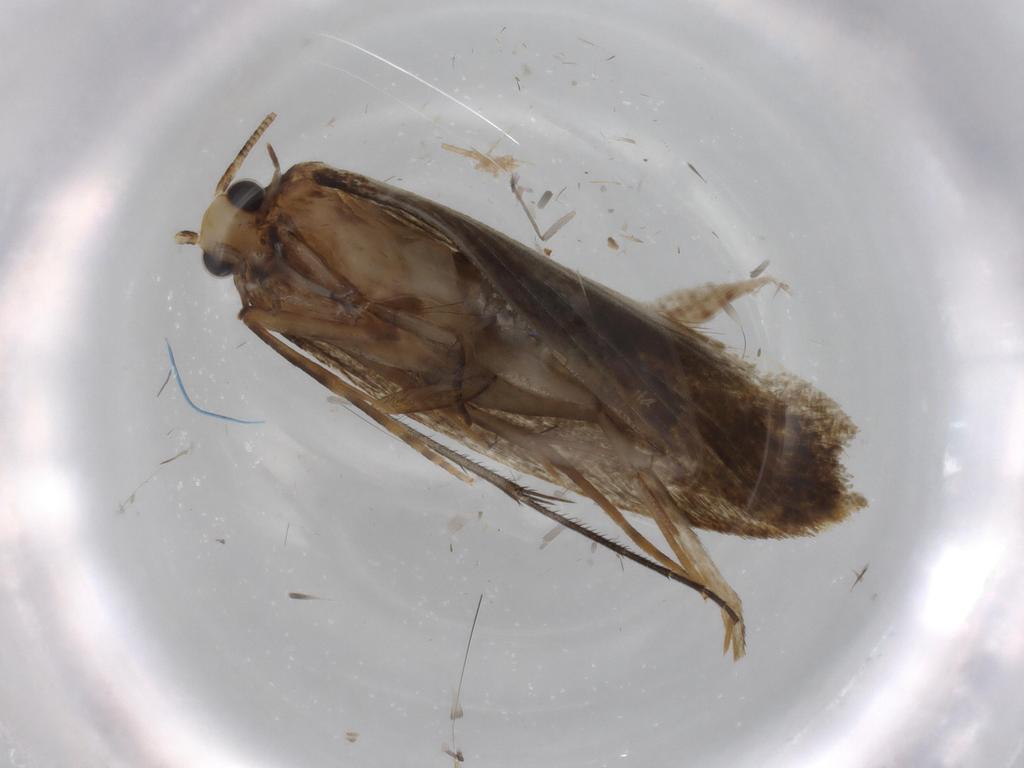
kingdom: Animalia
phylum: Arthropoda
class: Insecta
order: Lepidoptera
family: Tineidae
